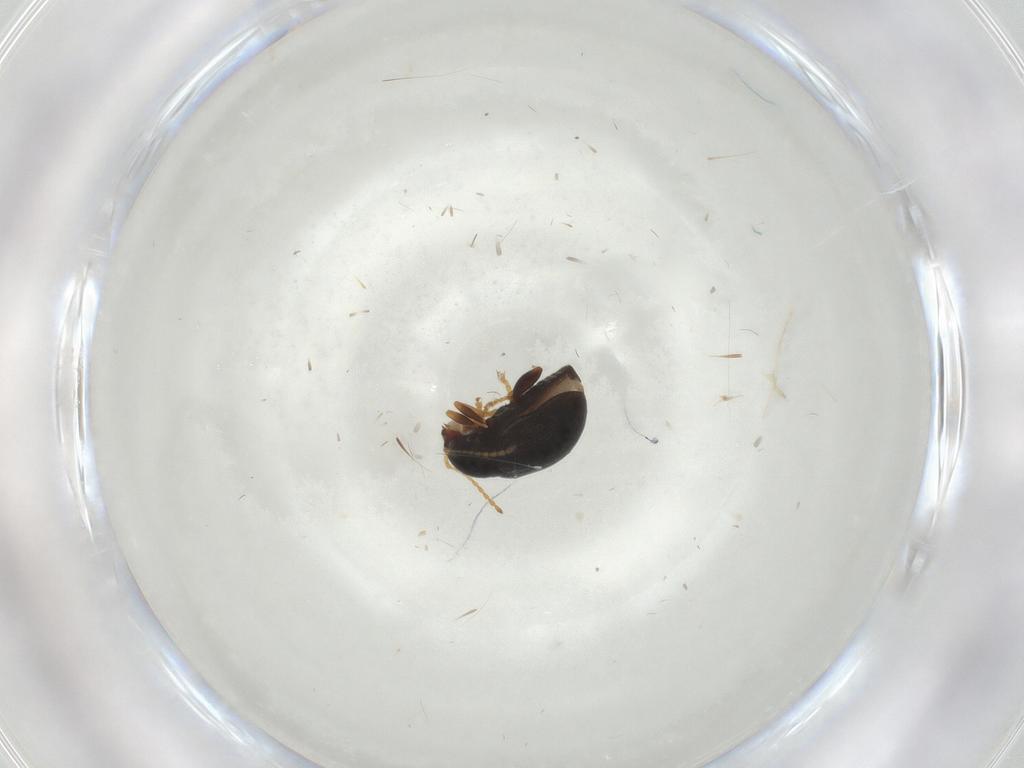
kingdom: Animalia
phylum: Arthropoda
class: Insecta
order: Coleoptera
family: Chrysomelidae
